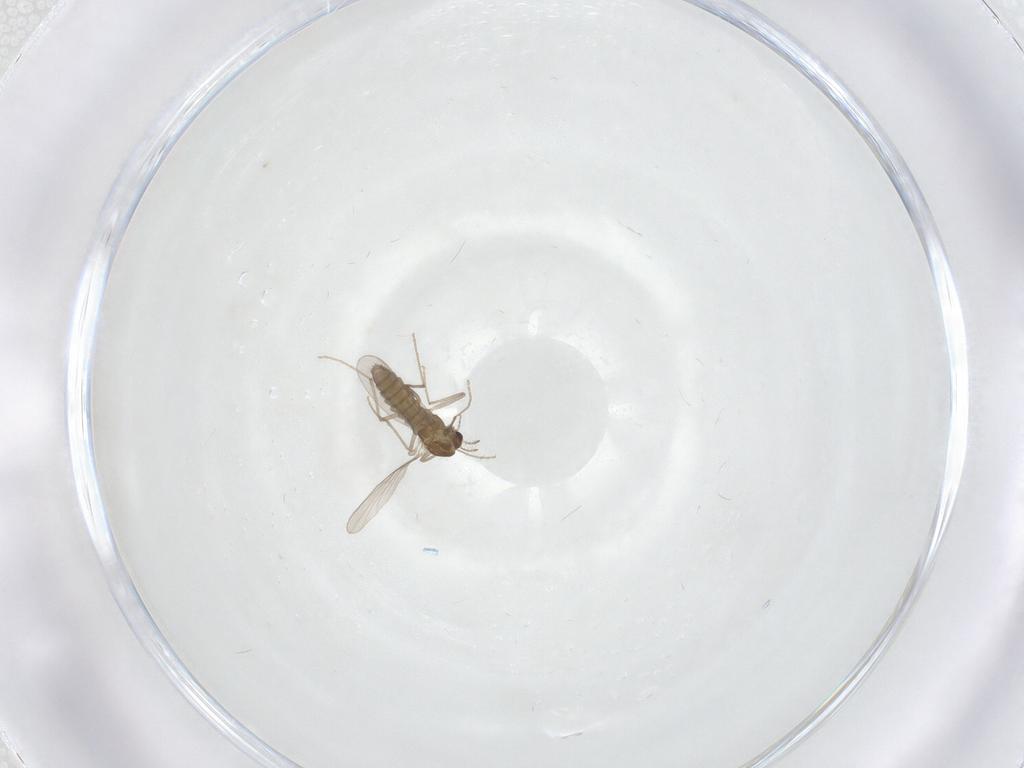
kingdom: Animalia
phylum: Arthropoda
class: Insecta
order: Diptera
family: Chironomidae
